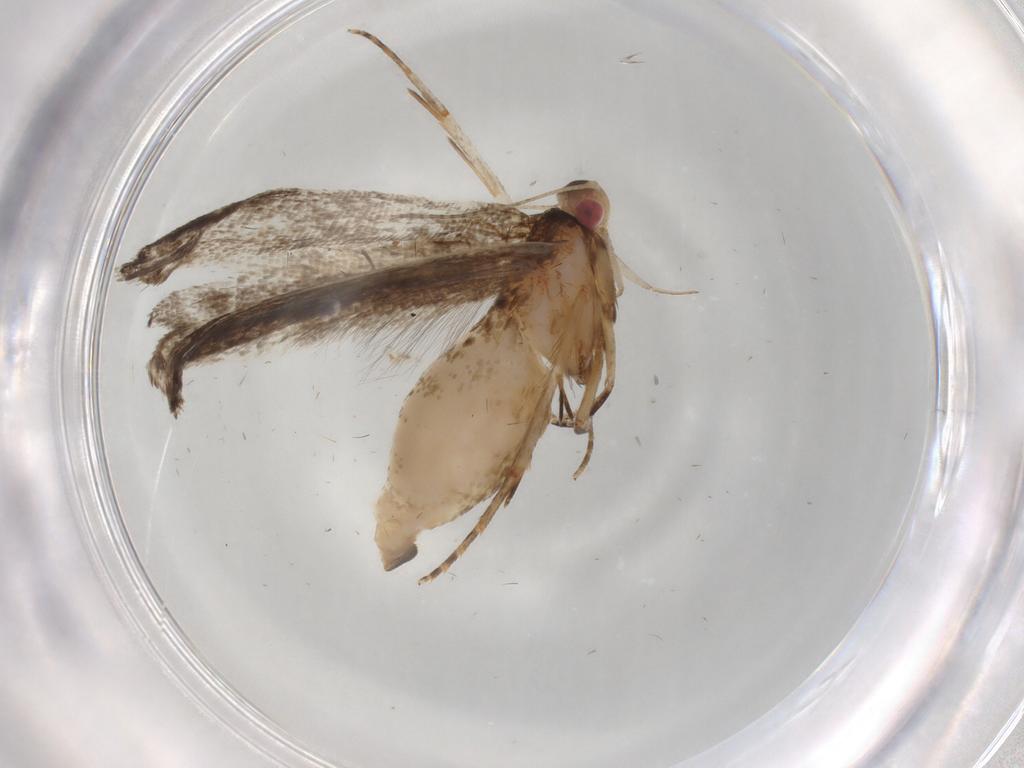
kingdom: Animalia
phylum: Arthropoda
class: Insecta
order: Lepidoptera
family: Gelechiidae
